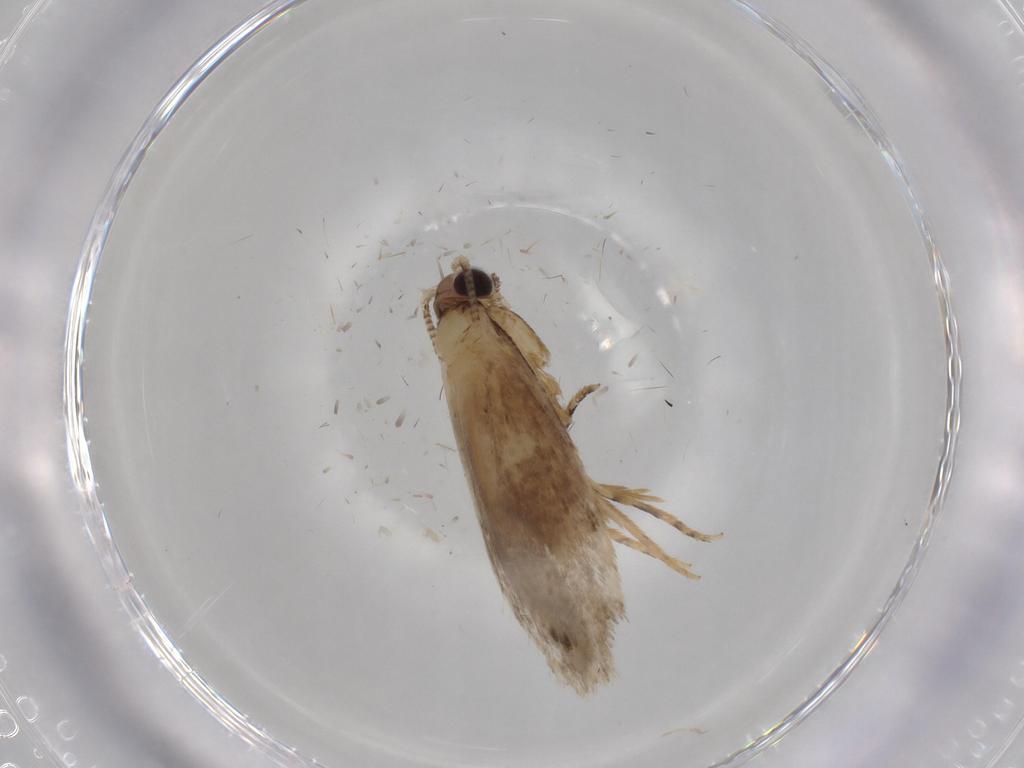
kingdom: Animalia
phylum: Arthropoda
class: Insecta
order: Lepidoptera
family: Tineidae
